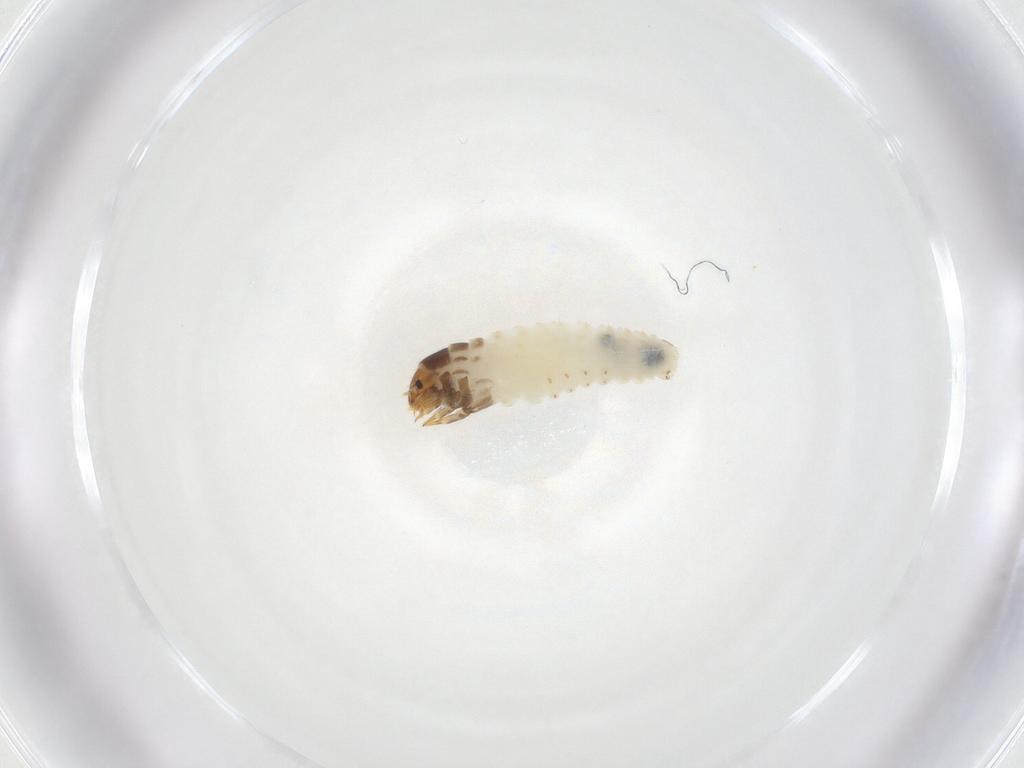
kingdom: Animalia
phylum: Arthropoda
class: Insecta
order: Lepidoptera
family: Psychidae
